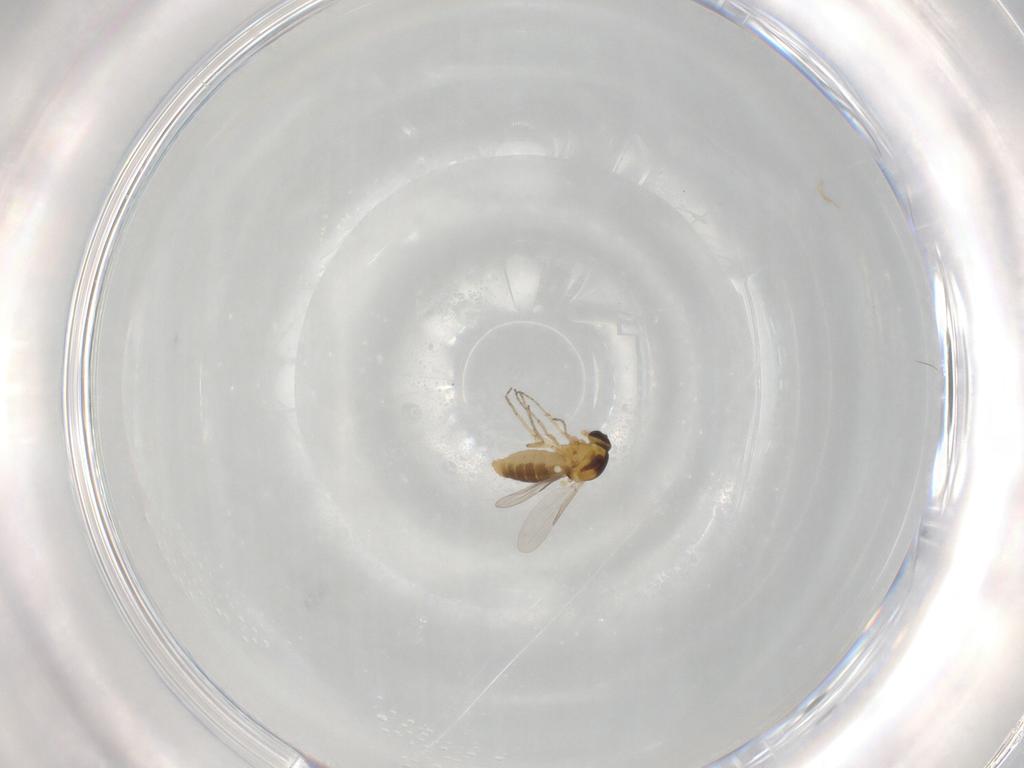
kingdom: Animalia
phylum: Arthropoda
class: Insecta
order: Diptera
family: Ceratopogonidae
